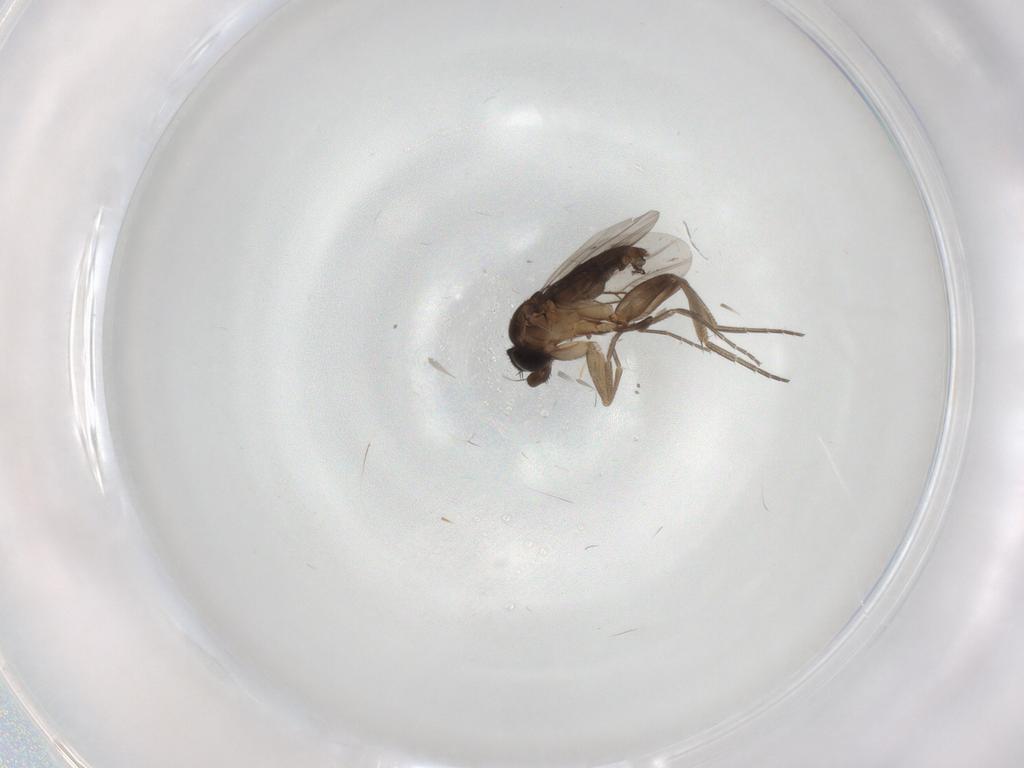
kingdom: Animalia
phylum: Arthropoda
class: Insecta
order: Diptera
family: Phoridae
